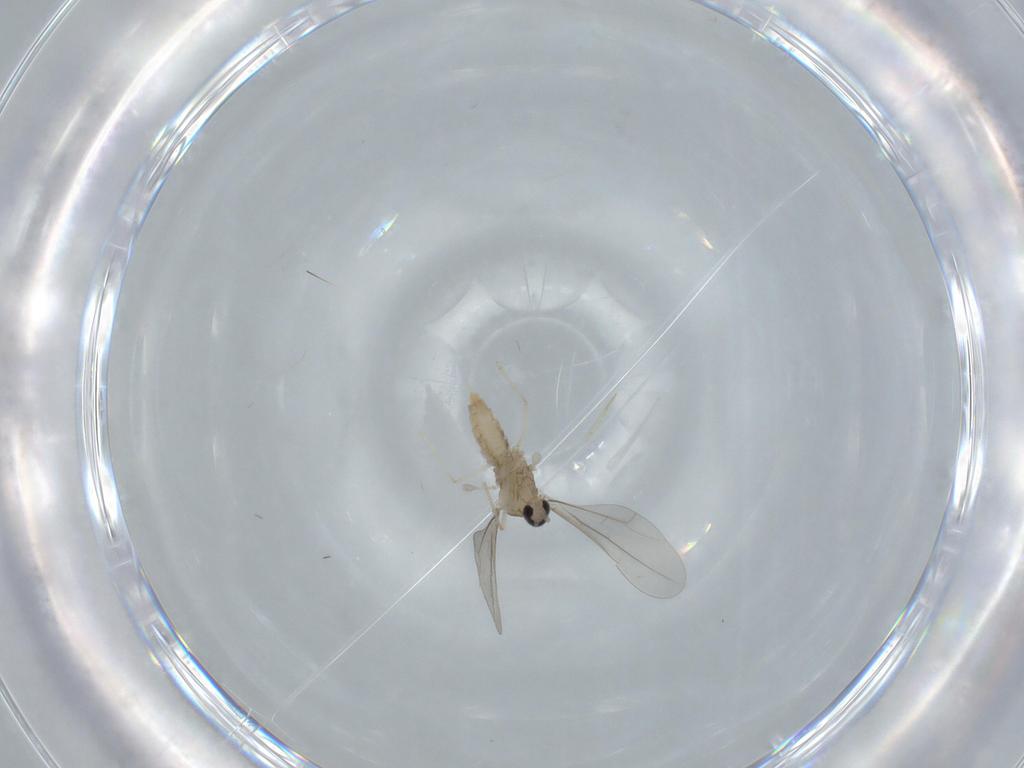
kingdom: Animalia
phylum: Arthropoda
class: Insecta
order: Diptera
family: Cecidomyiidae
